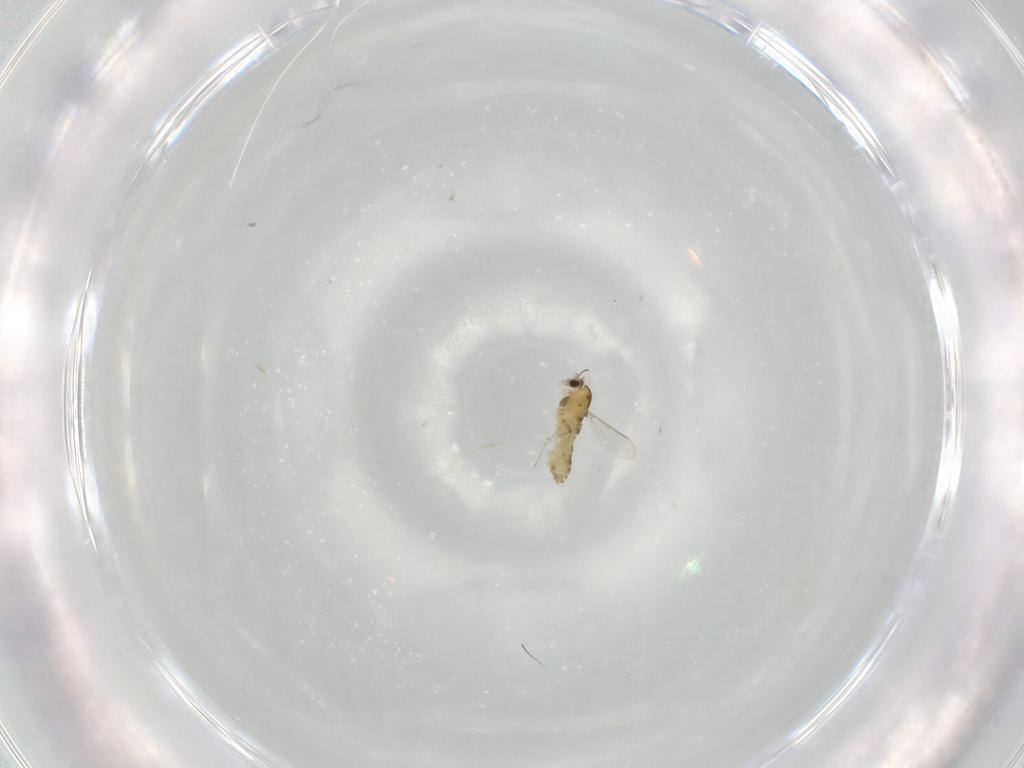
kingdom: Animalia
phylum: Arthropoda
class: Insecta
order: Diptera
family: Chironomidae
